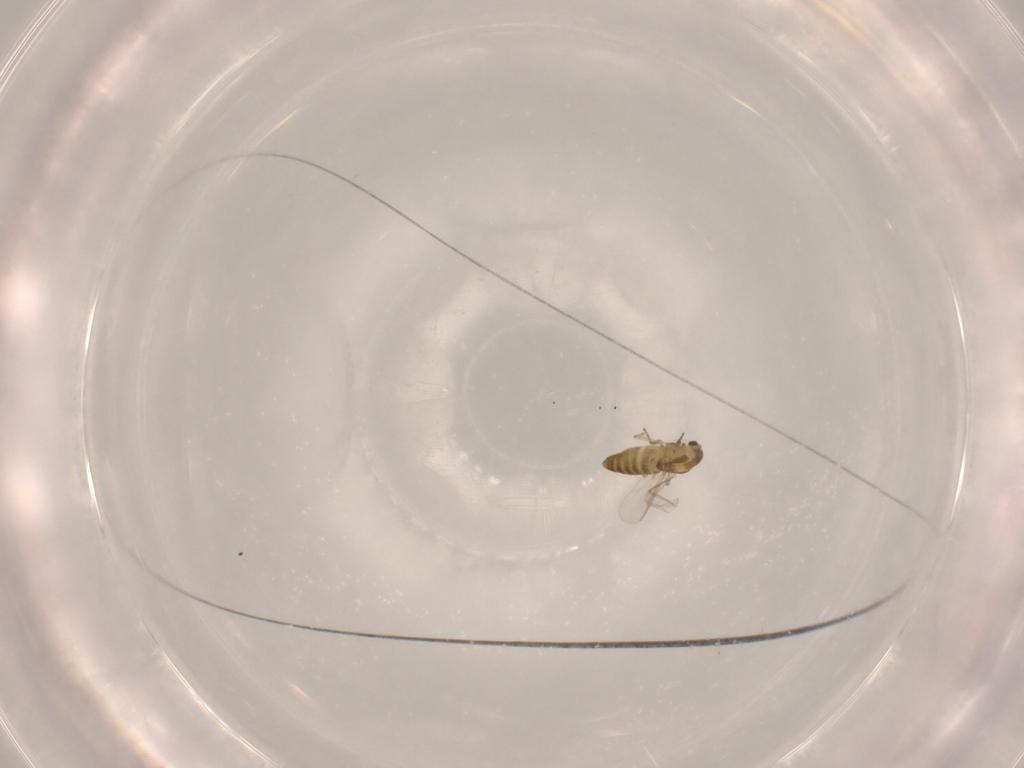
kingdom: Animalia
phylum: Arthropoda
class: Insecta
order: Diptera
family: Chironomidae
